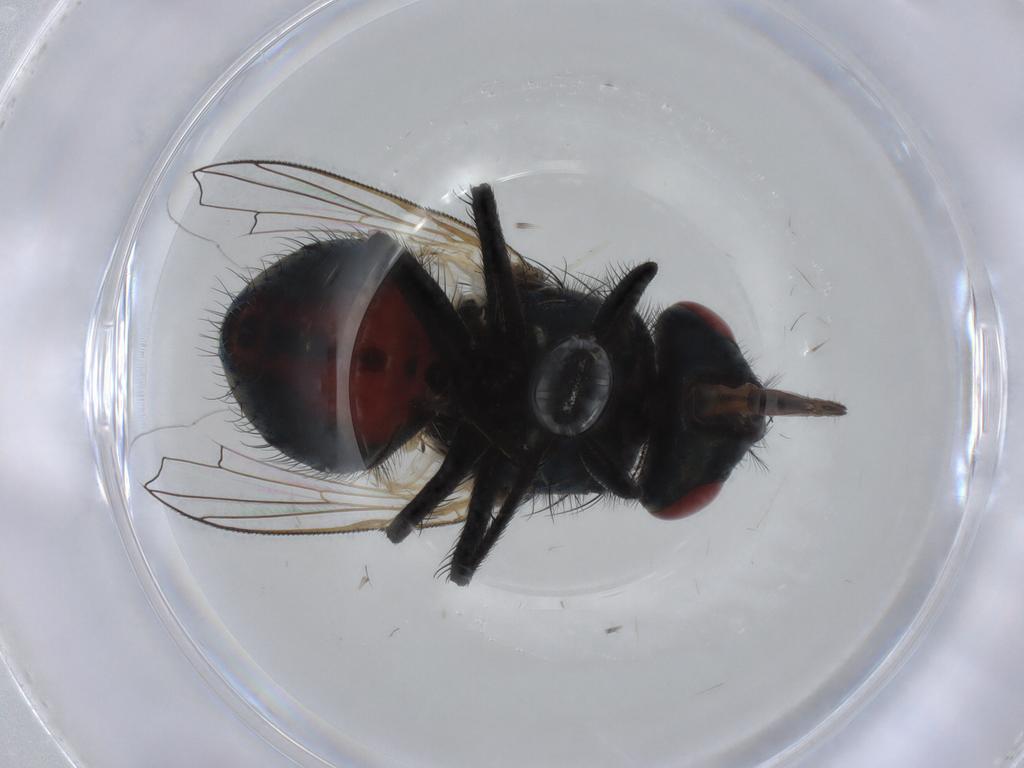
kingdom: Animalia
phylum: Arthropoda
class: Insecta
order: Diptera
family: Muscidae
